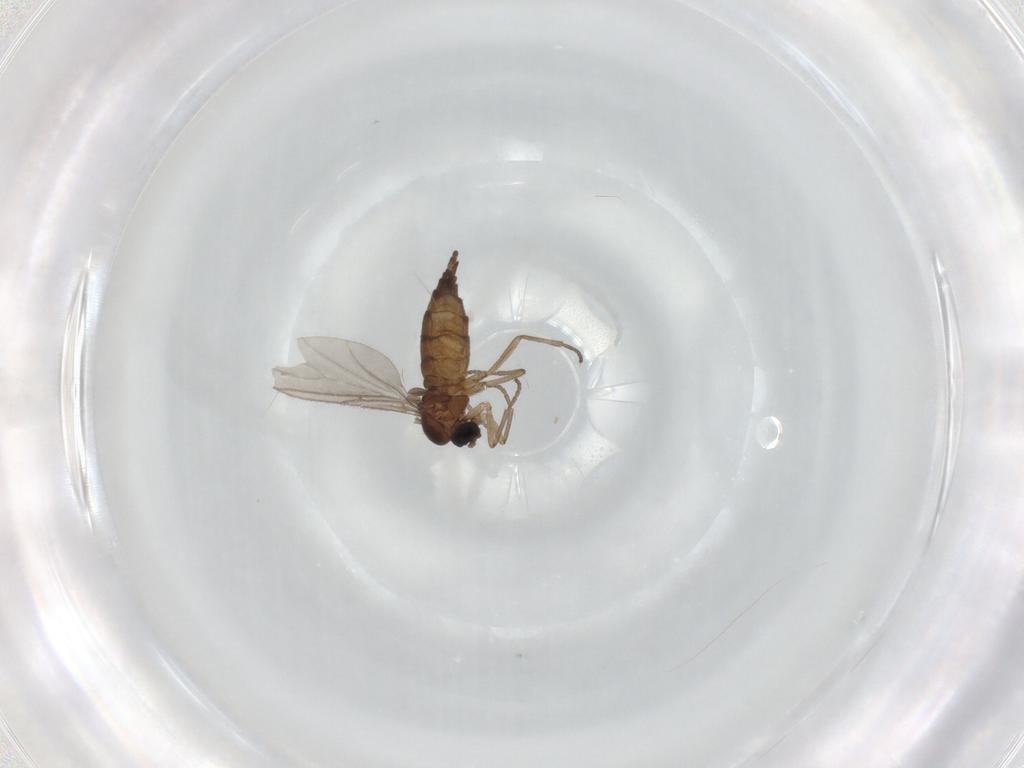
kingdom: Animalia
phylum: Arthropoda
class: Insecta
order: Diptera
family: Sciaridae
